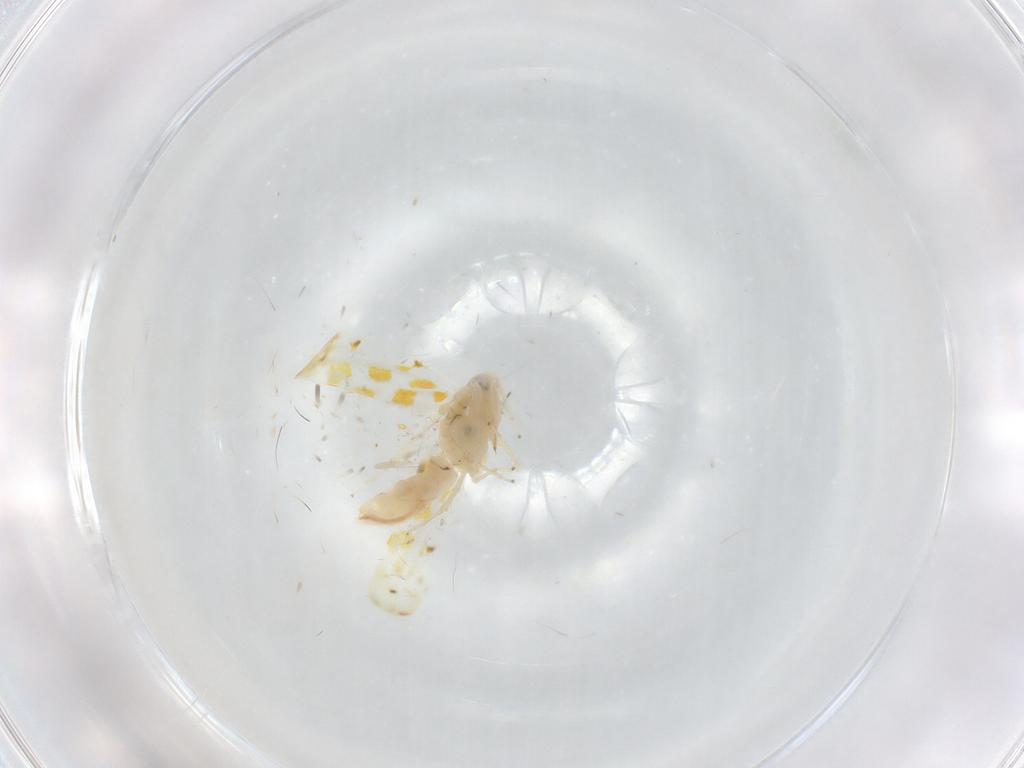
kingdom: Animalia
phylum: Arthropoda
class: Insecta
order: Hemiptera
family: Cicadellidae
